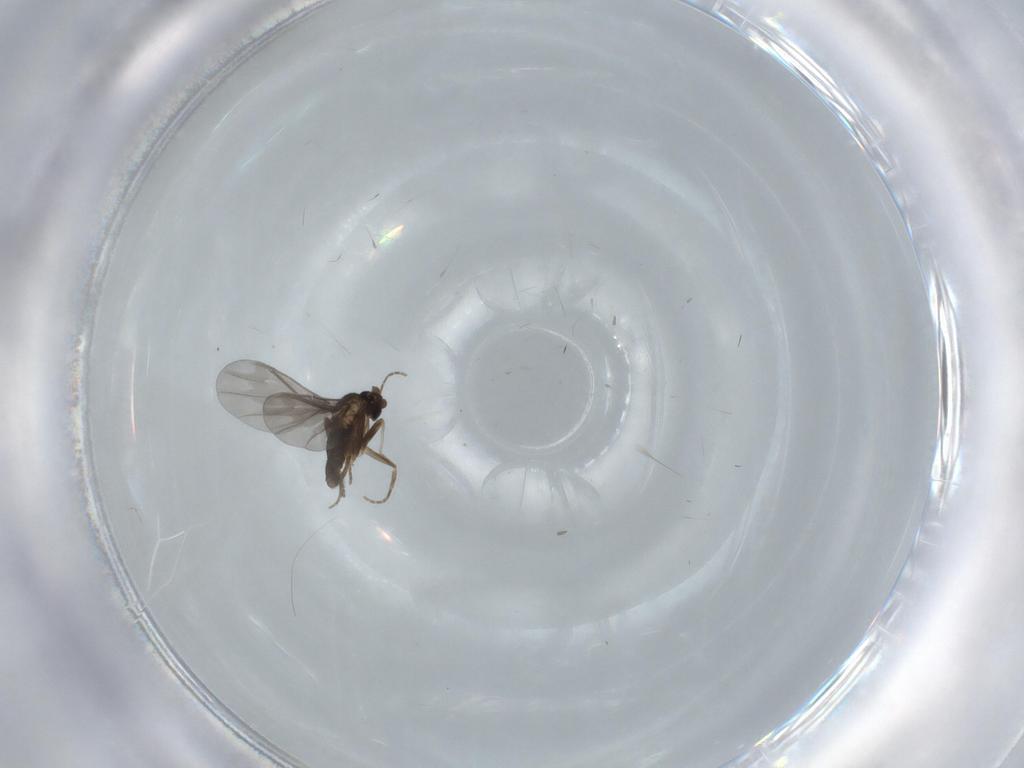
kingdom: Animalia
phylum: Arthropoda
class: Insecta
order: Diptera
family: Phoridae
